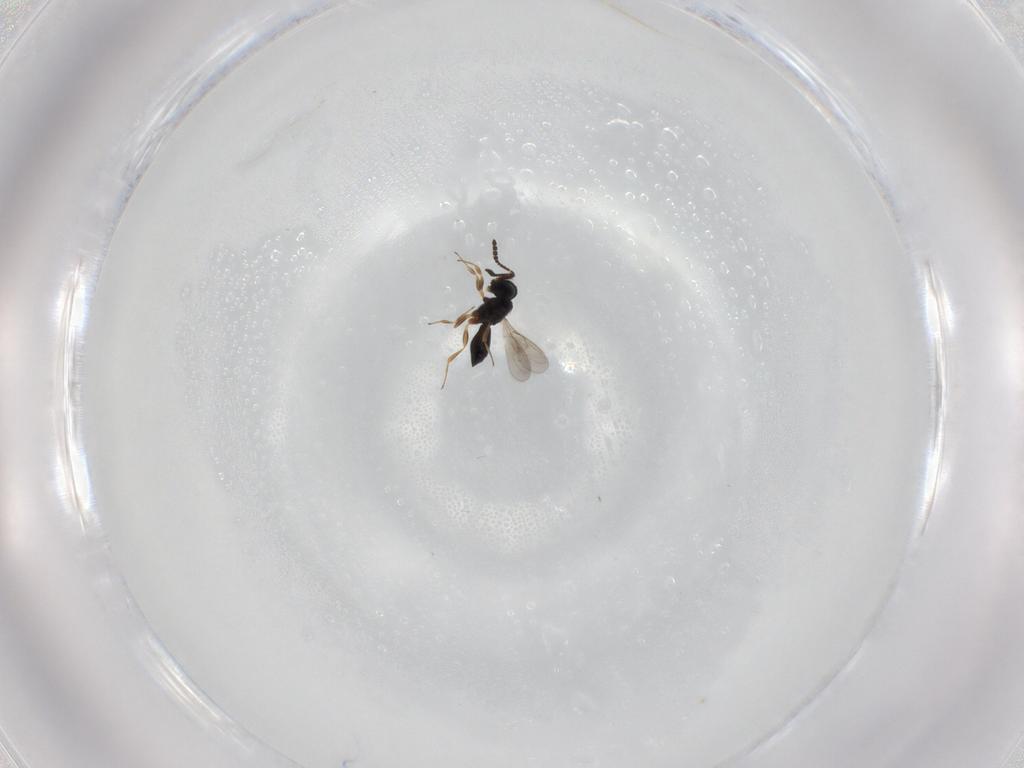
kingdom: Animalia
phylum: Arthropoda
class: Insecta
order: Hymenoptera
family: Scelionidae
